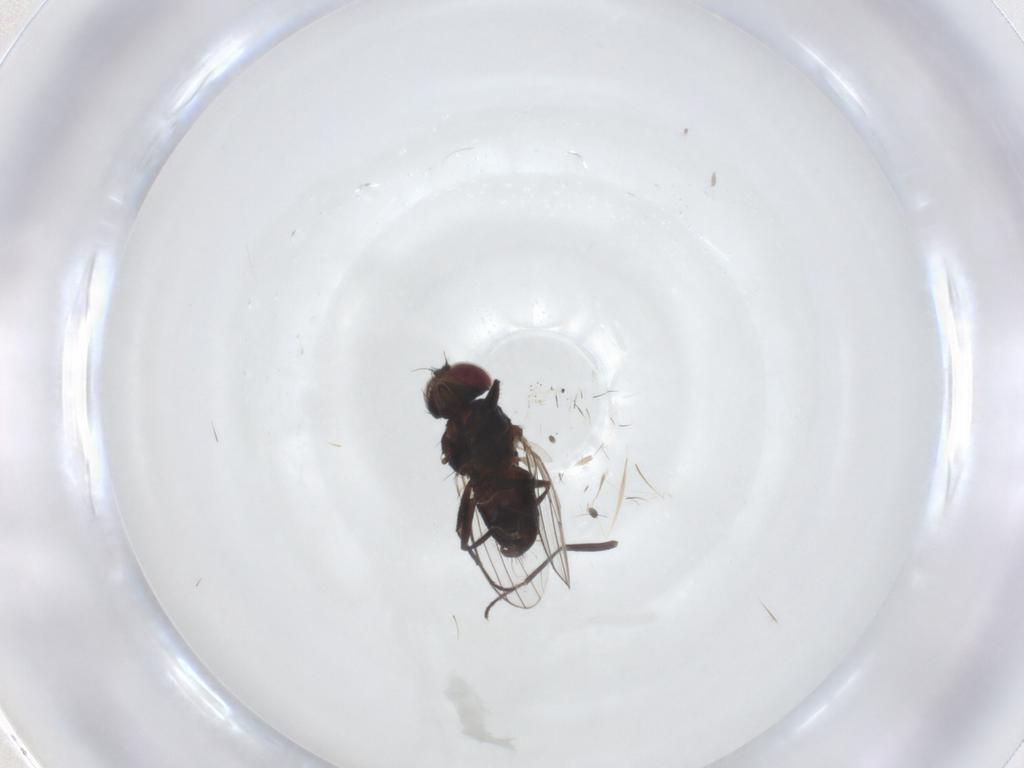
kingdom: Animalia
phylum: Arthropoda
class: Insecta
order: Diptera
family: Carnidae
